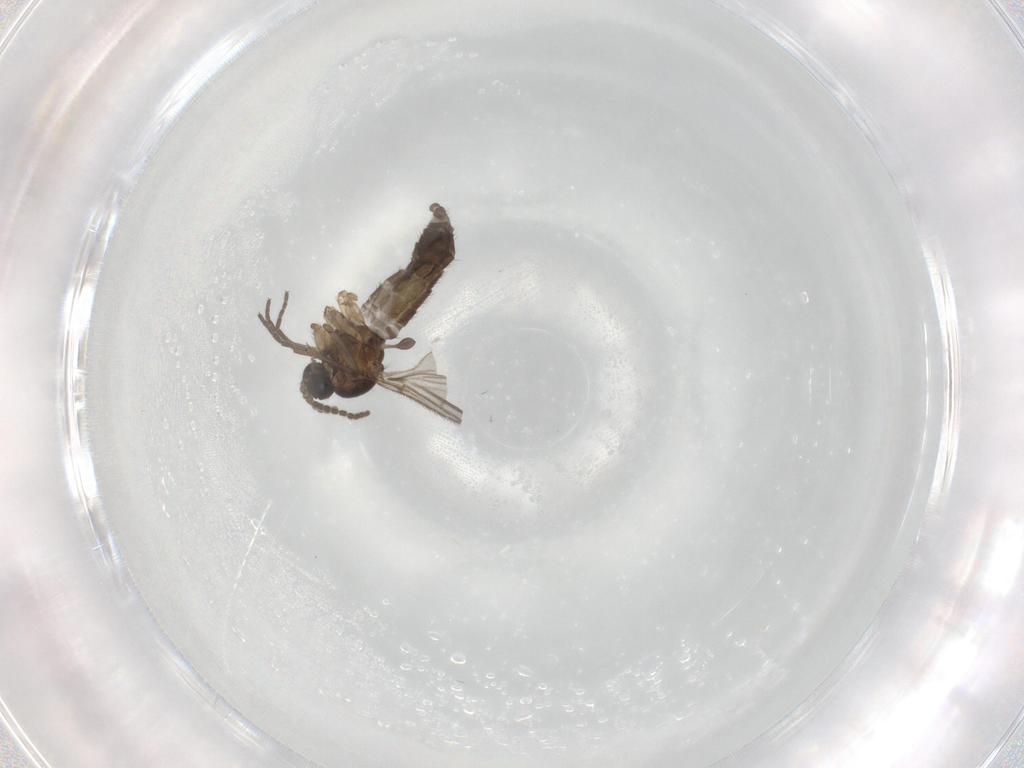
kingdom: Animalia
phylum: Arthropoda
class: Insecta
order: Diptera
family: Sciaridae
